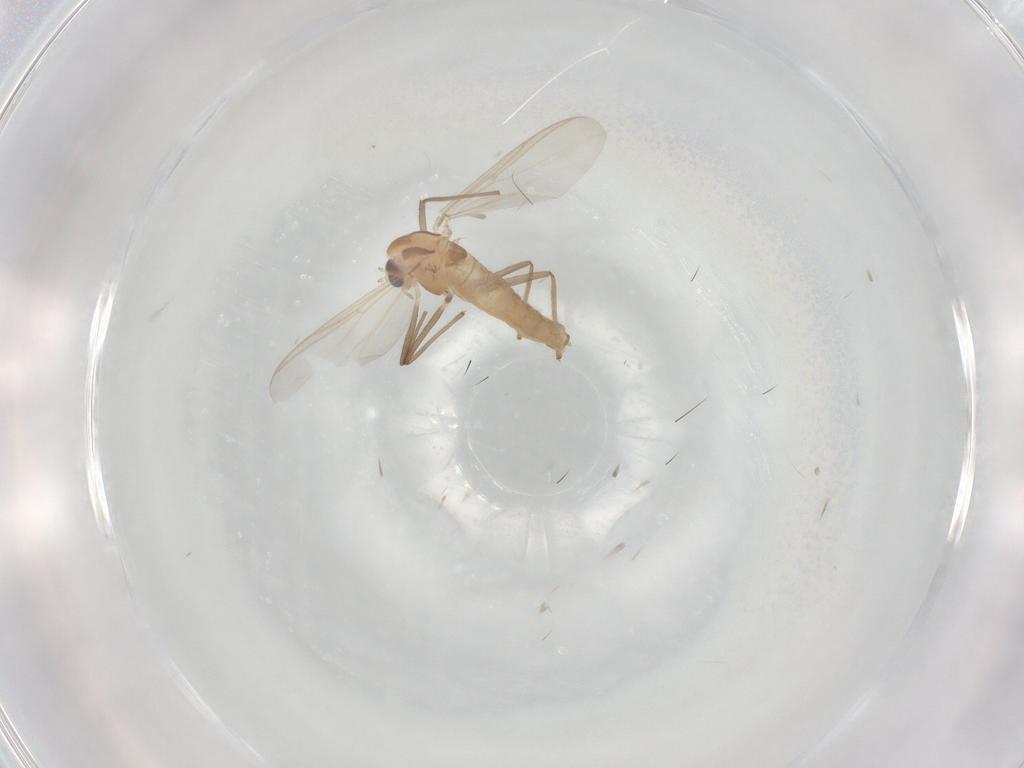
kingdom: Animalia
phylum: Arthropoda
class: Insecta
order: Diptera
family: Chironomidae
